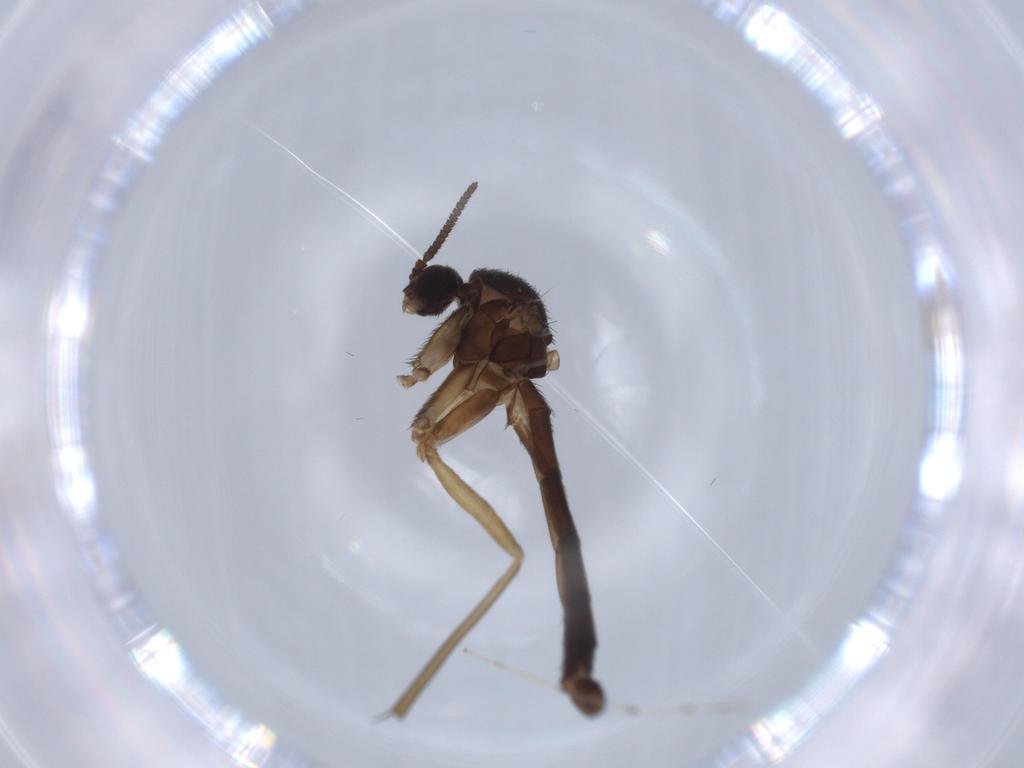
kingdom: Animalia
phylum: Arthropoda
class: Insecta
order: Diptera
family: Keroplatidae
